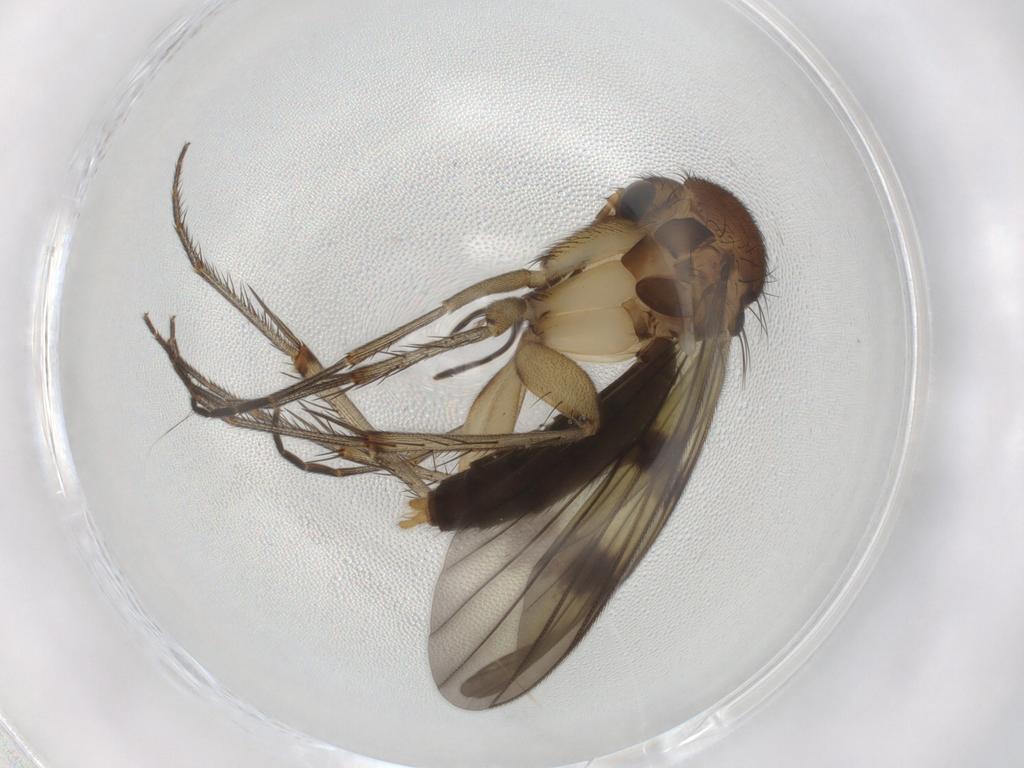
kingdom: Animalia
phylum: Arthropoda
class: Insecta
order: Diptera
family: Mycetophilidae
